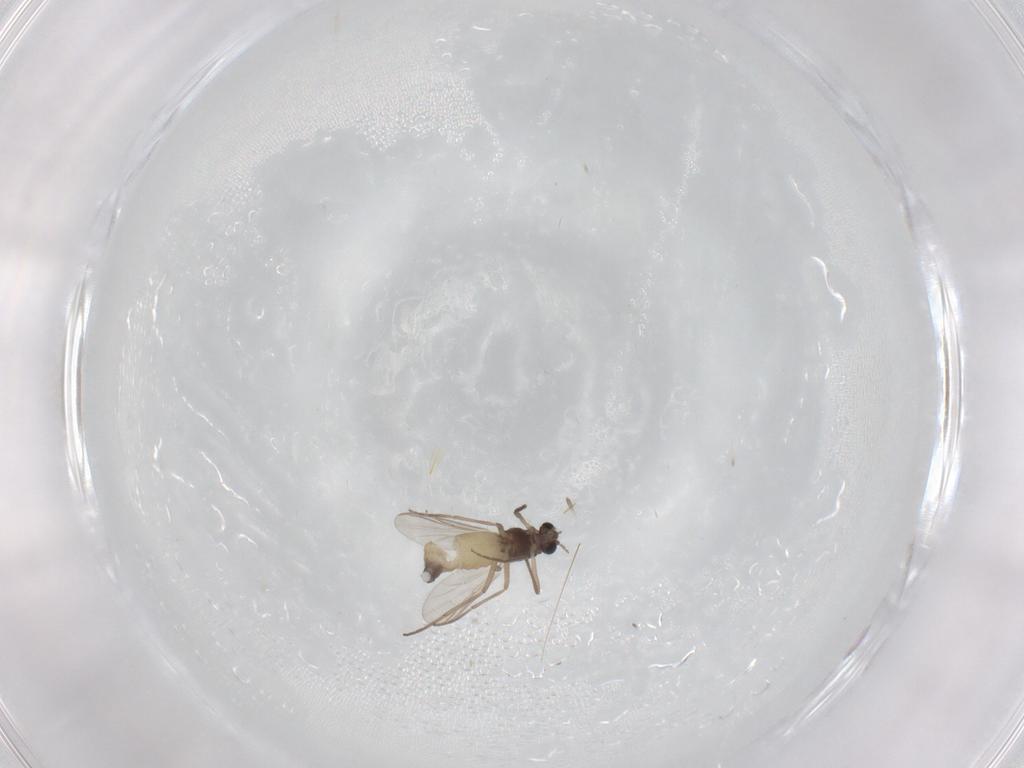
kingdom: Animalia
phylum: Arthropoda
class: Insecta
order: Diptera
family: Chironomidae
